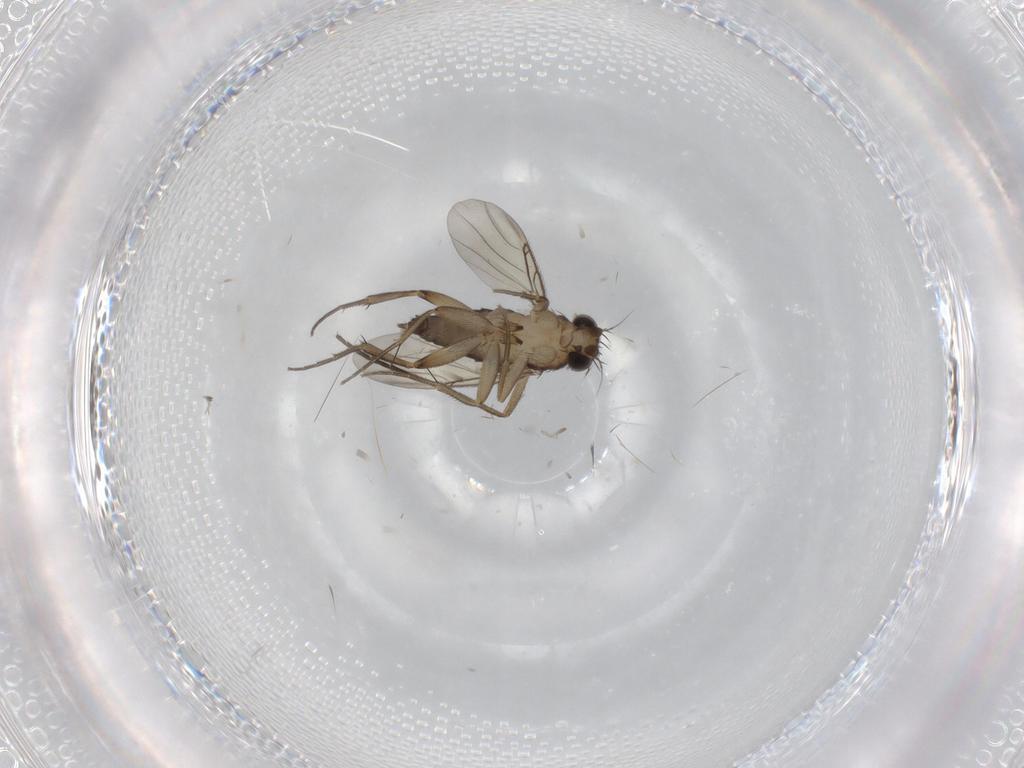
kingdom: Animalia
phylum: Arthropoda
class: Insecta
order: Diptera
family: Phoridae
